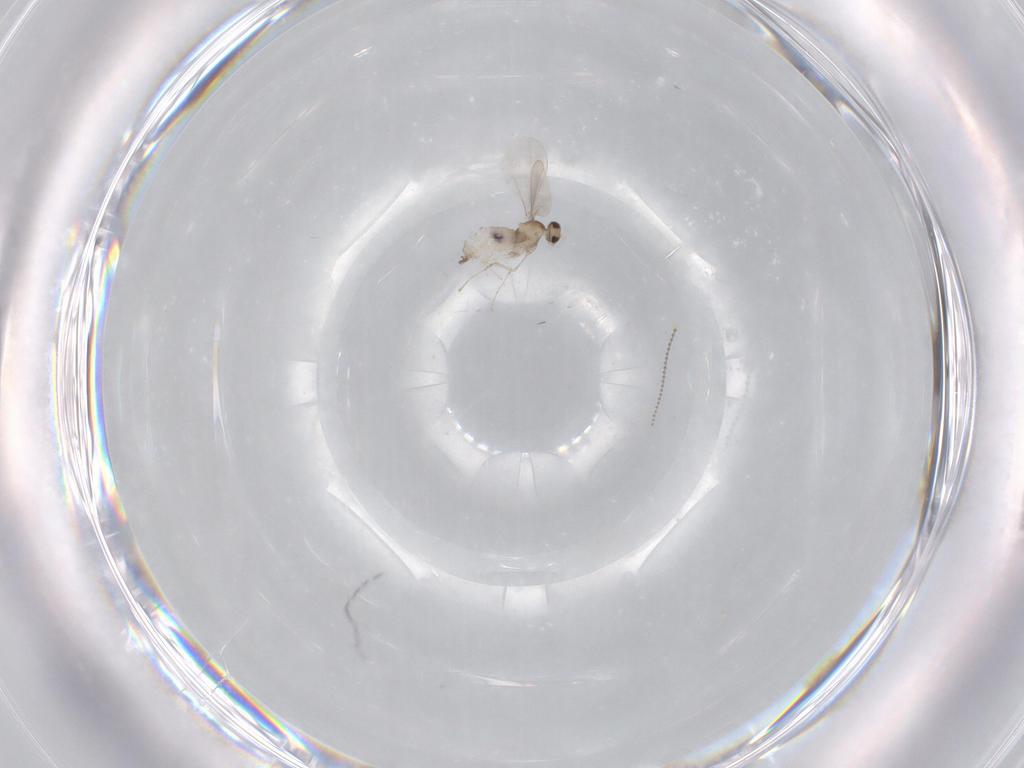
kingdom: Animalia
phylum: Arthropoda
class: Insecta
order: Diptera
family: Cecidomyiidae
